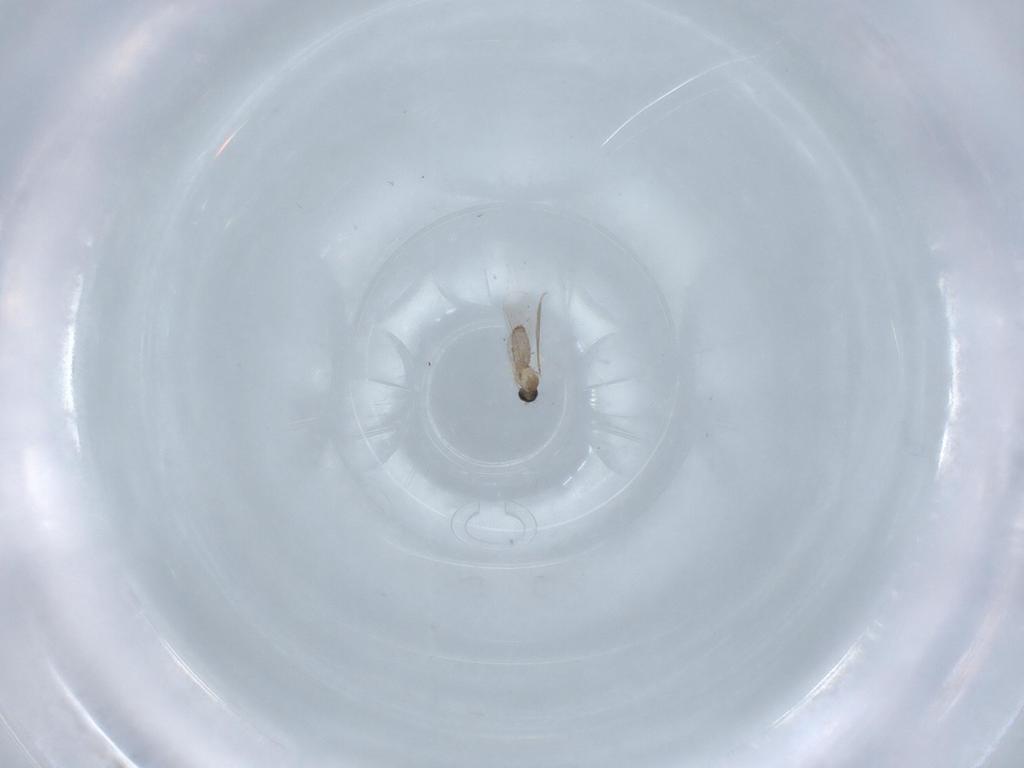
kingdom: Animalia
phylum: Arthropoda
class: Insecta
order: Diptera
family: Cecidomyiidae
